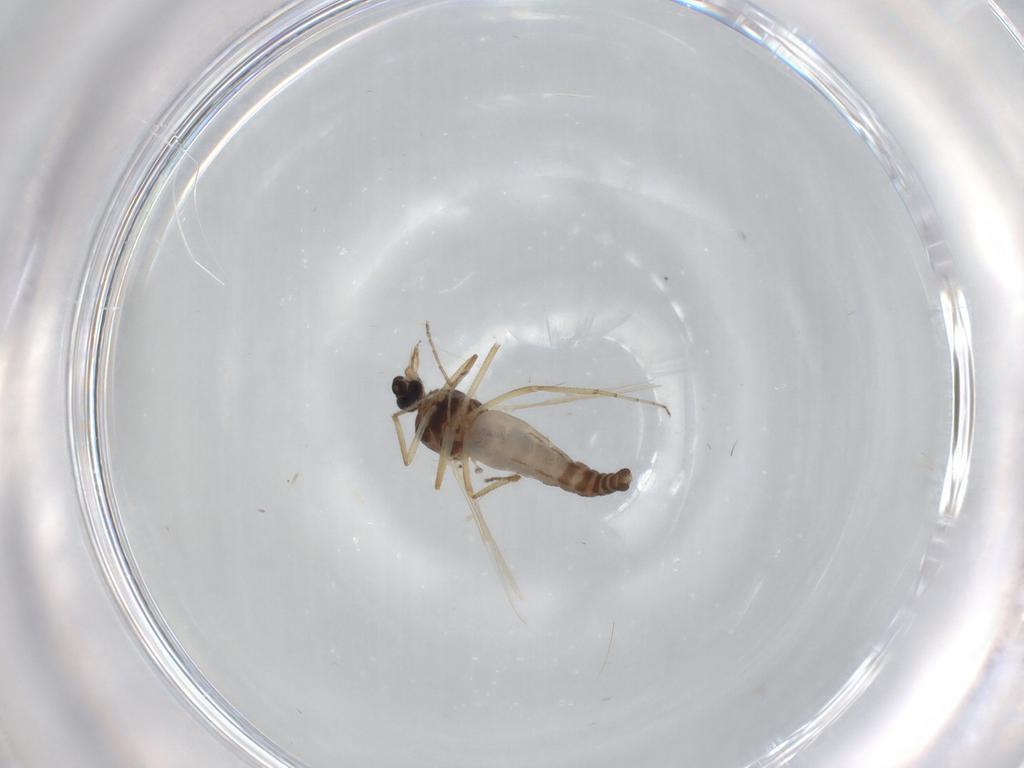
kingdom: Animalia
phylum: Arthropoda
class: Insecta
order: Diptera
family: Ceratopogonidae
